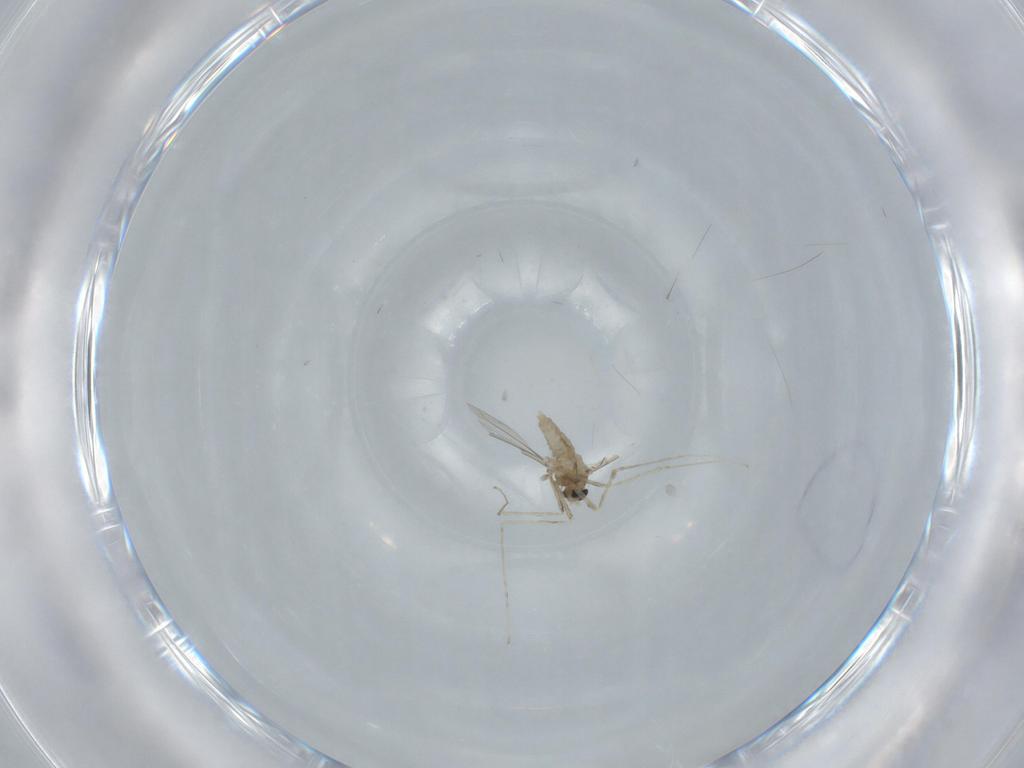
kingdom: Animalia
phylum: Arthropoda
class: Insecta
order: Diptera
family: Cecidomyiidae
